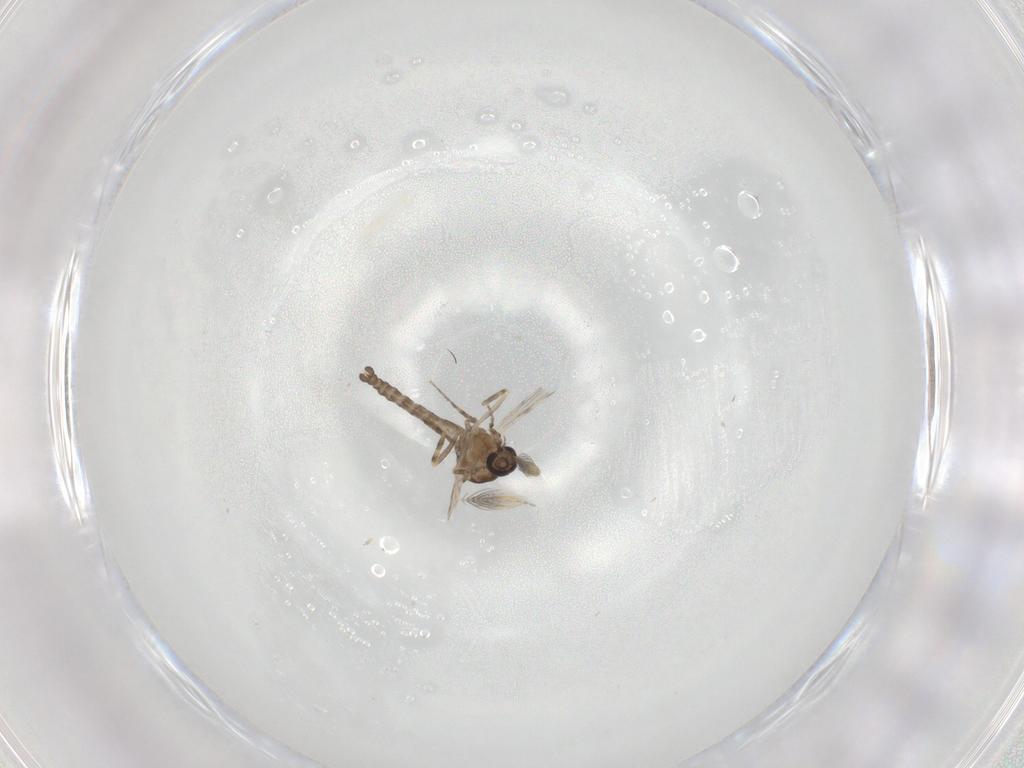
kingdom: Animalia
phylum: Arthropoda
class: Insecta
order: Diptera
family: Ceratopogonidae
